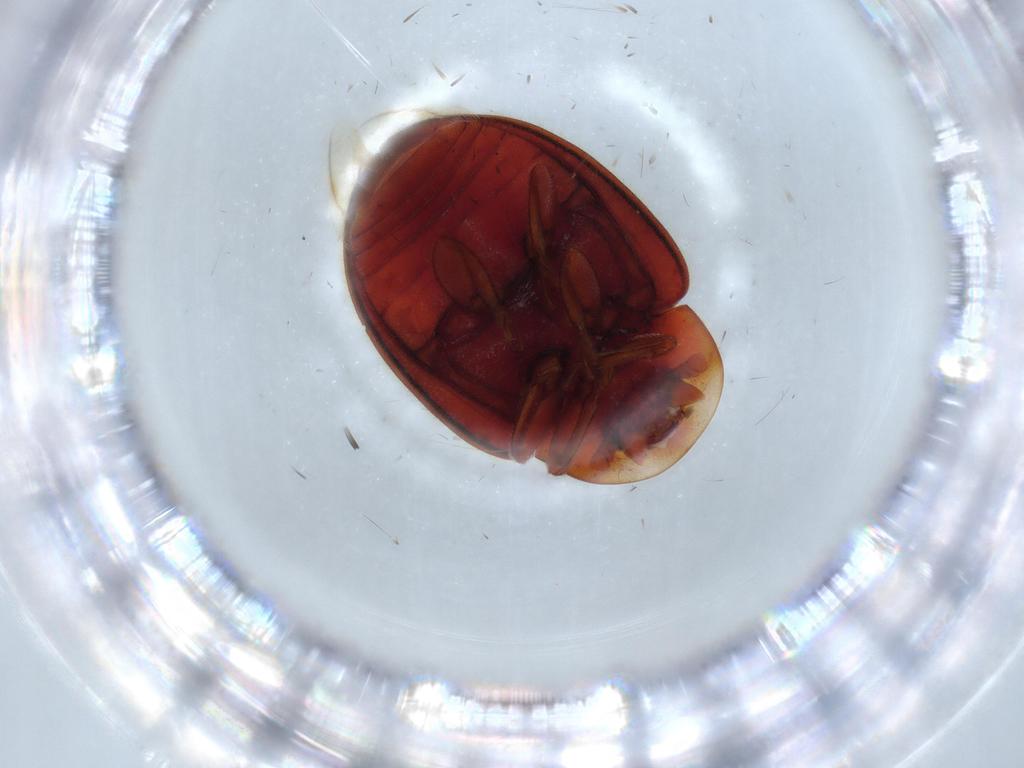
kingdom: Animalia
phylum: Arthropoda
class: Insecta
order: Coleoptera
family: Coccinellidae
